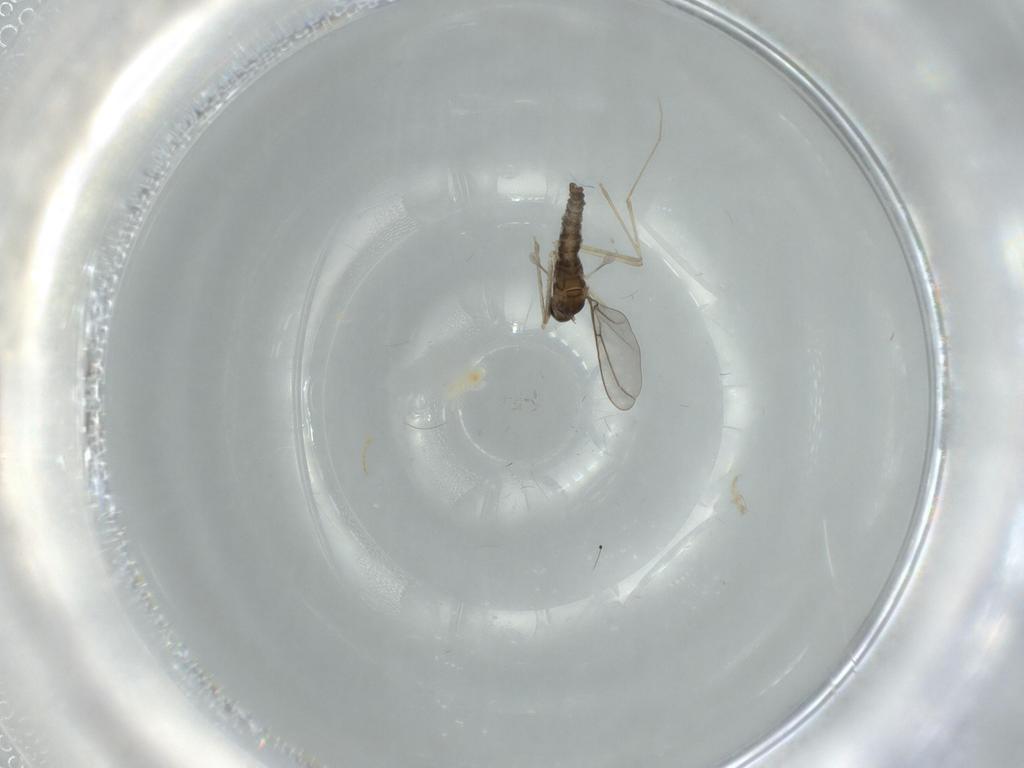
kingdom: Animalia
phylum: Arthropoda
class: Insecta
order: Diptera
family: Cecidomyiidae
